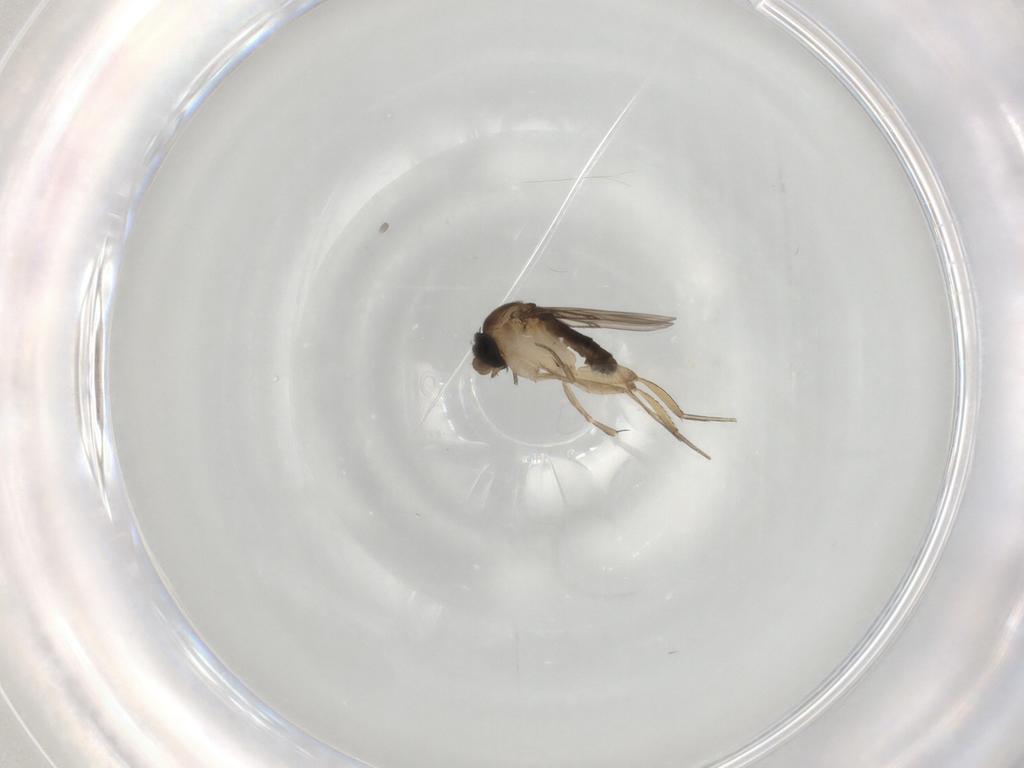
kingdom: Animalia
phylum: Arthropoda
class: Insecta
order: Diptera
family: Phoridae
